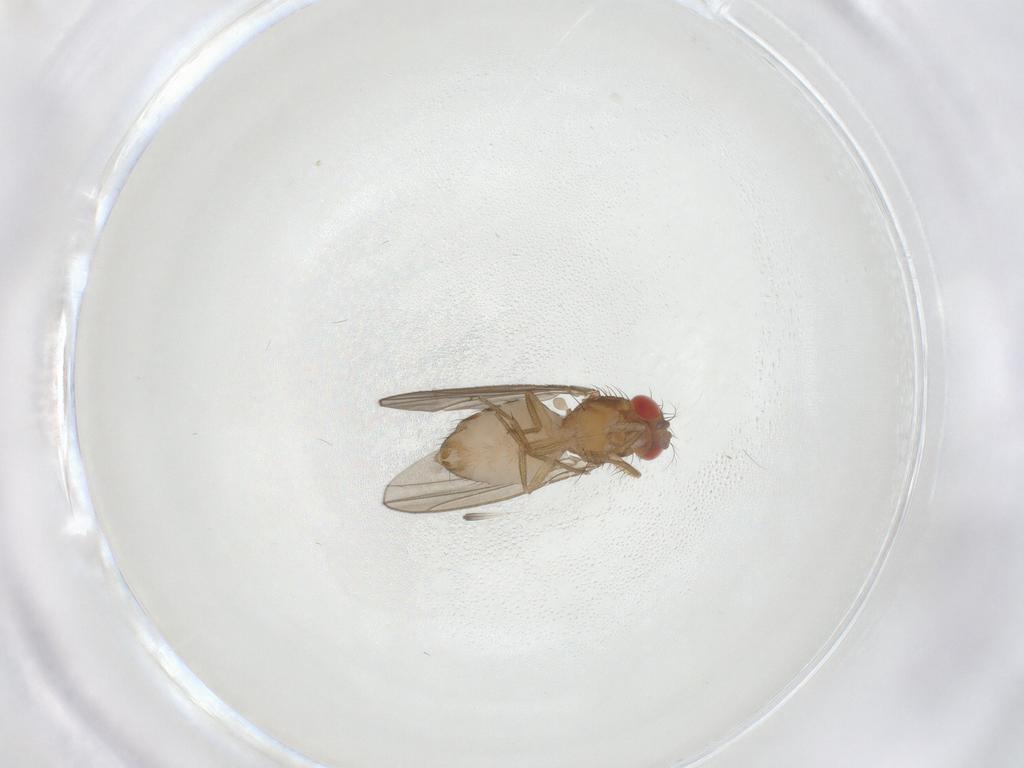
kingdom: Animalia
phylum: Arthropoda
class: Insecta
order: Diptera
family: Drosophilidae
